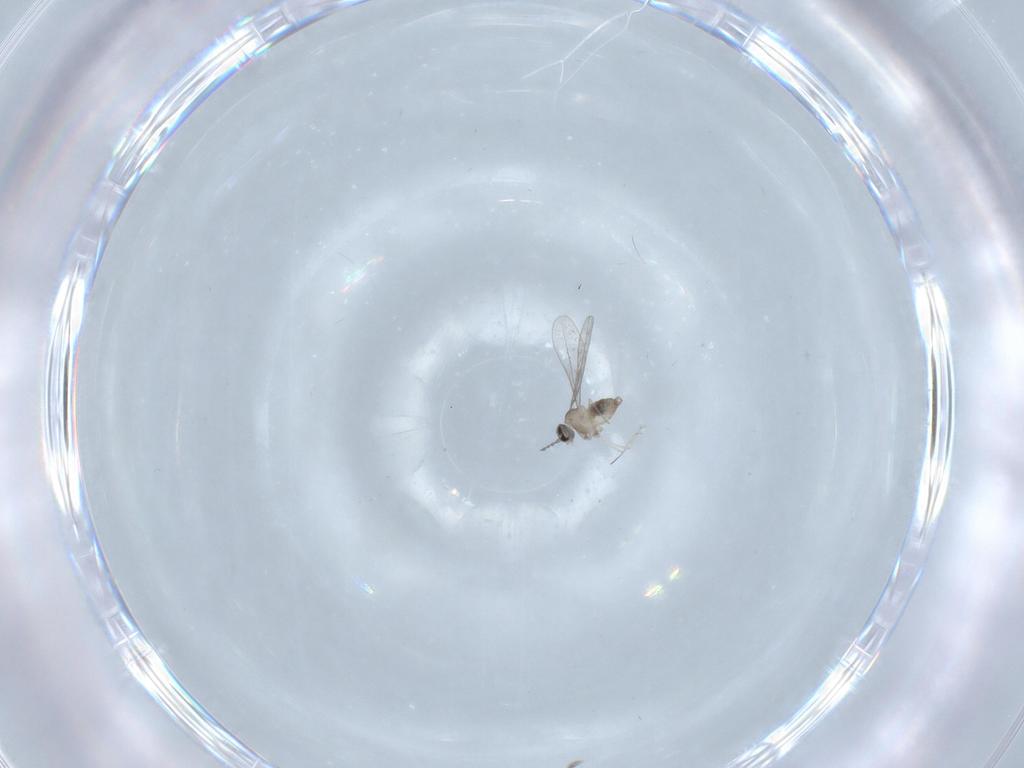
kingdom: Animalia
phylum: Arthropoda
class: Insecta
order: Diptera
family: Cecidomyiidae
